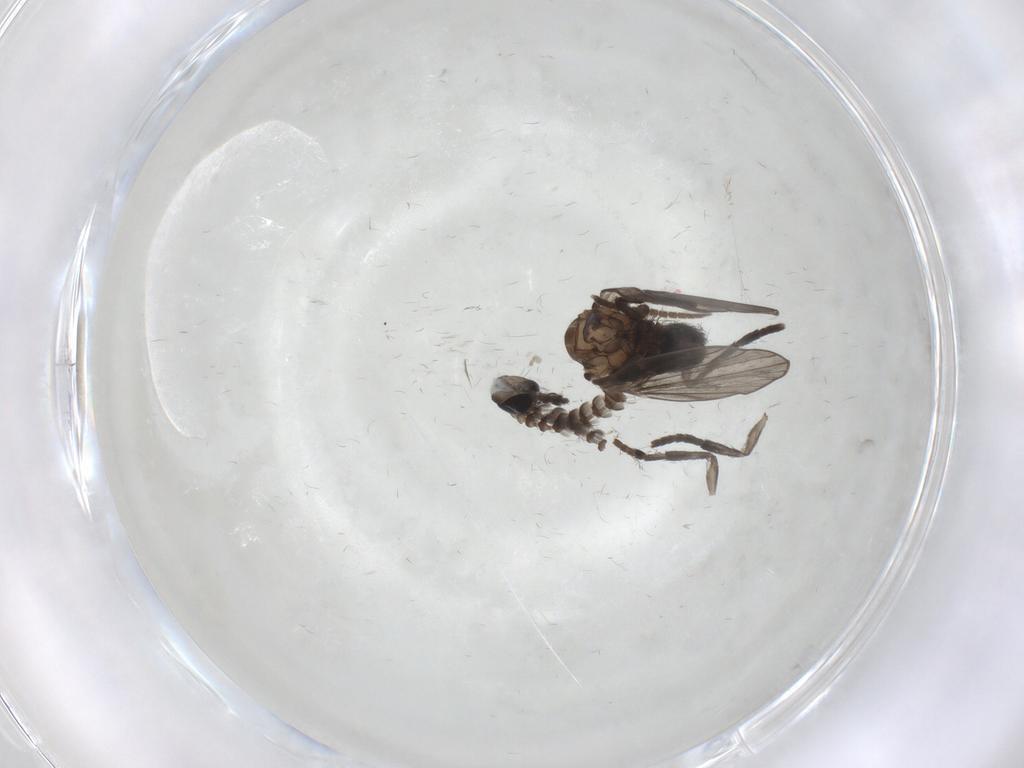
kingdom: Animalia
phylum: Arthropoda
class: Insecta
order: Diptera
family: Psychodidae
